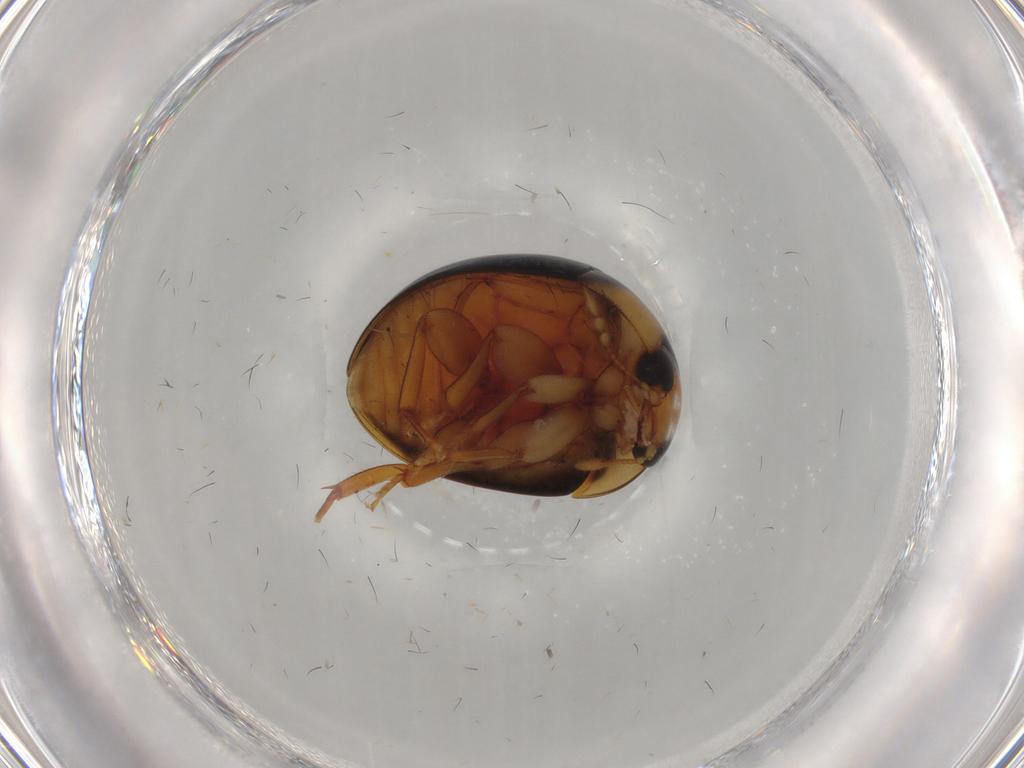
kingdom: Animalia
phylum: Arthropoda
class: Insecta
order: Coleoptera
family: Phalacridae
